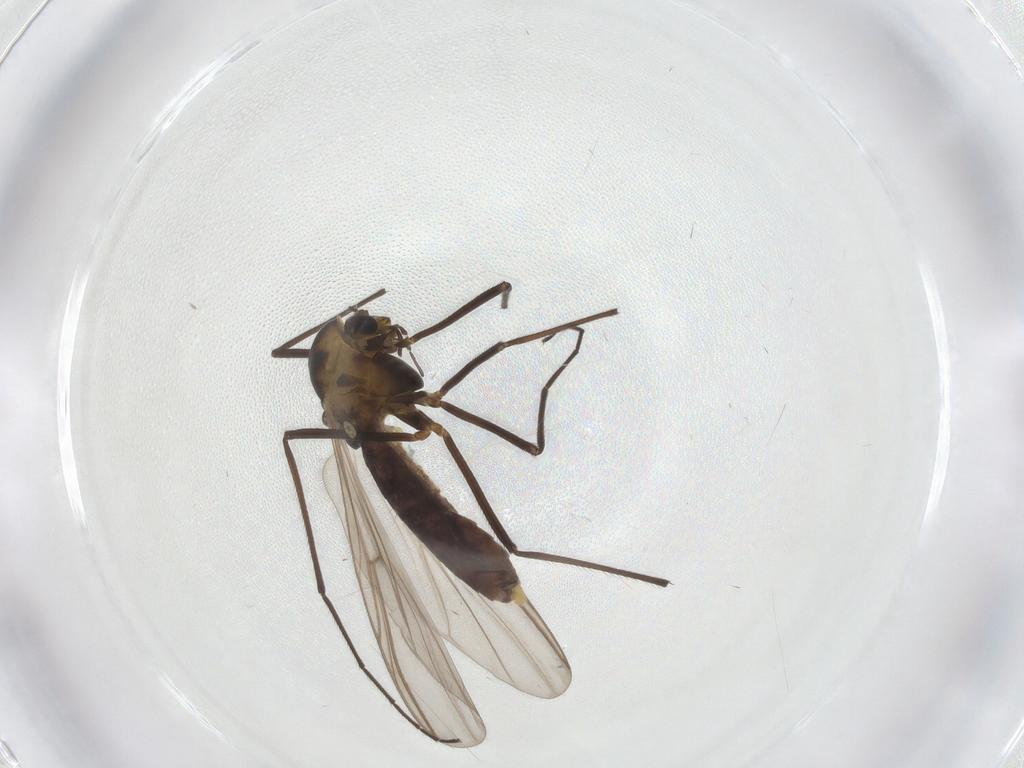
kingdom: Animalia
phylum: Arthropoda
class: Insecta
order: Diptera
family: Chironomidae
